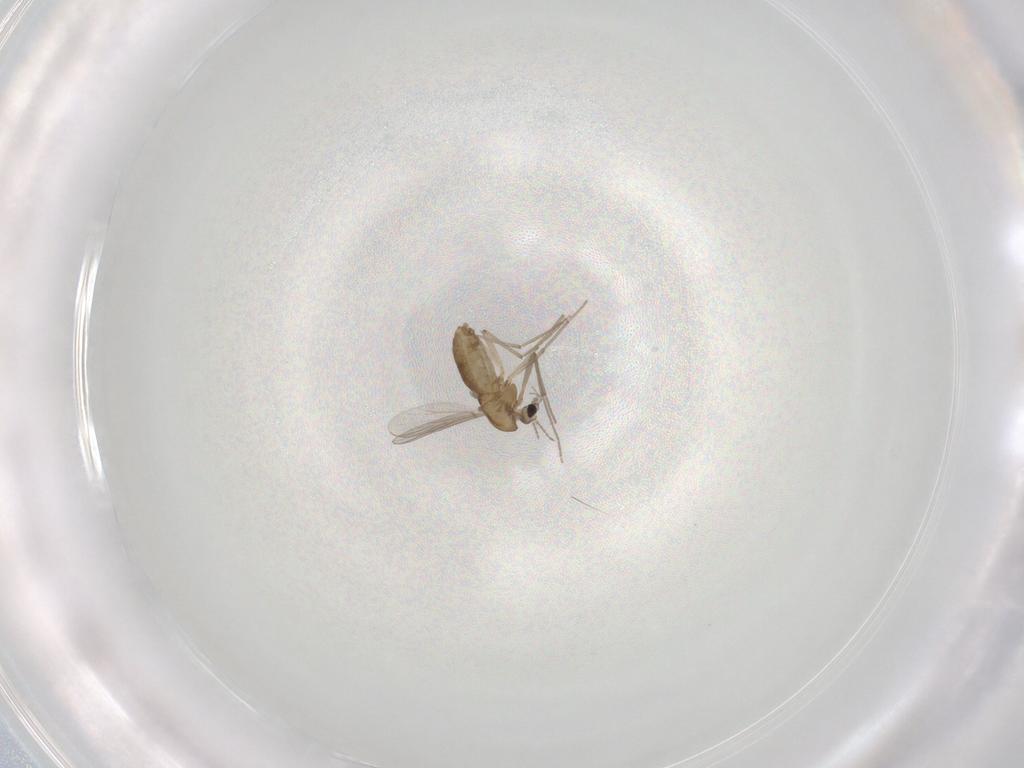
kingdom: Animalia
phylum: Arthropoda
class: Insecta
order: Diptera
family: Chironomidae
